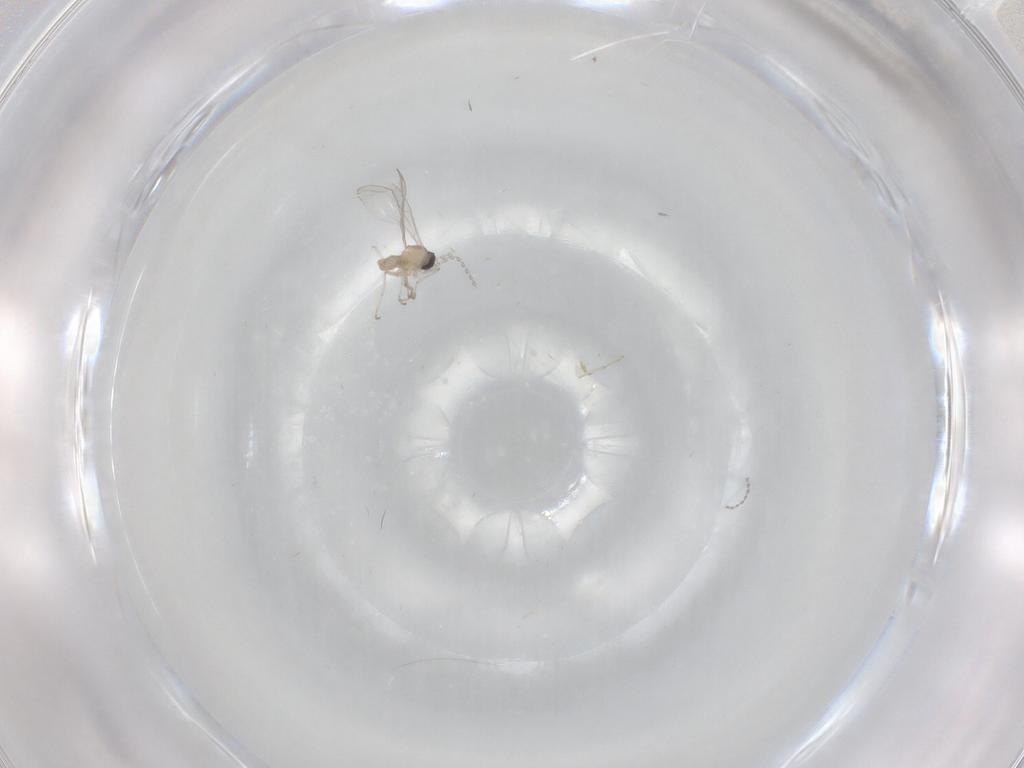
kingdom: Animalia
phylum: Arthropoda
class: Insecta
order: Diptera
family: Cecidomyiidae
